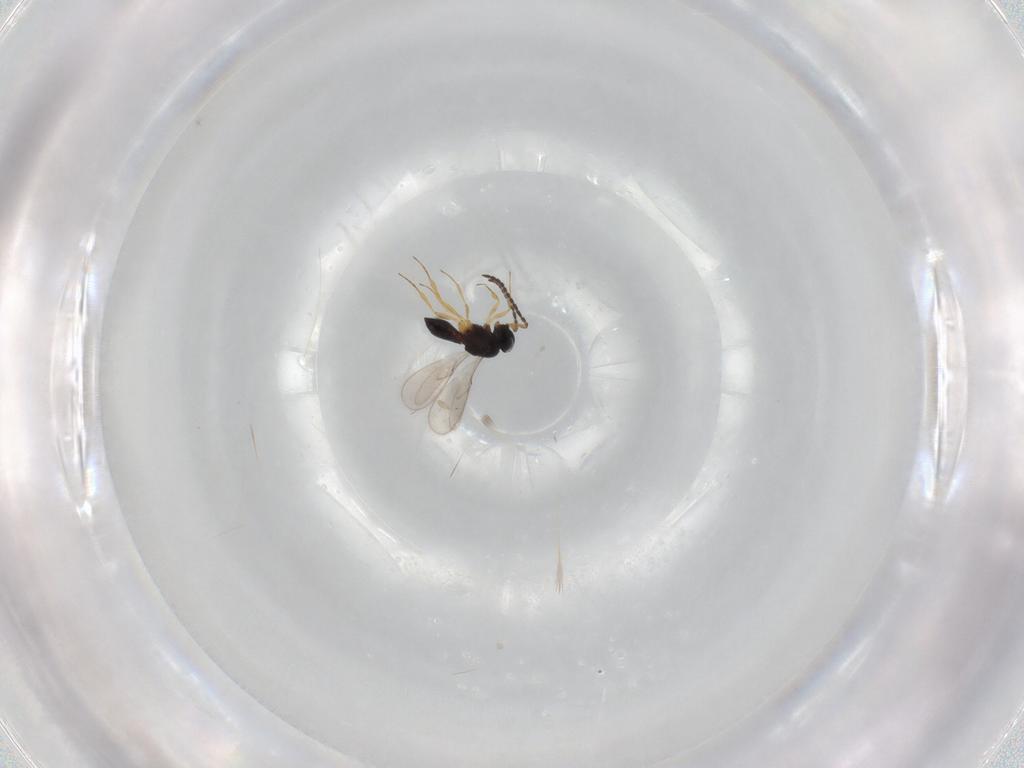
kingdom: Animalia
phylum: Arthropoda
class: Insecta
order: Hymenoptera
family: Scelionidae
